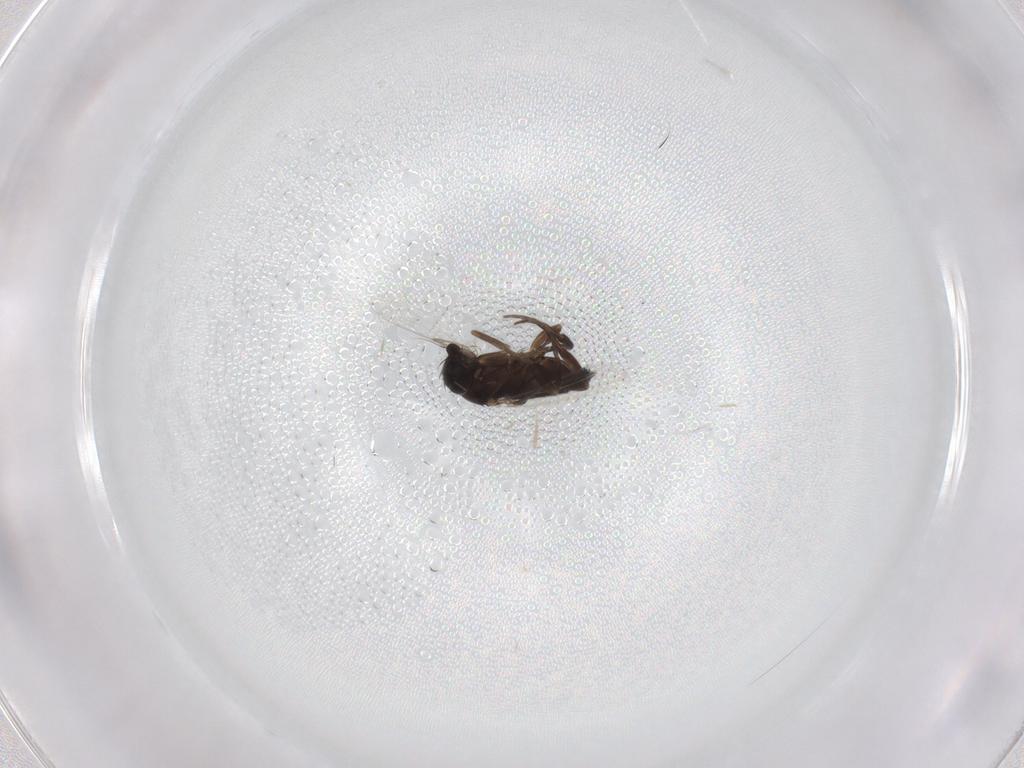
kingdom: Animalia
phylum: Arthropoda
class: Insecta
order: Diptera
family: Phoridae
